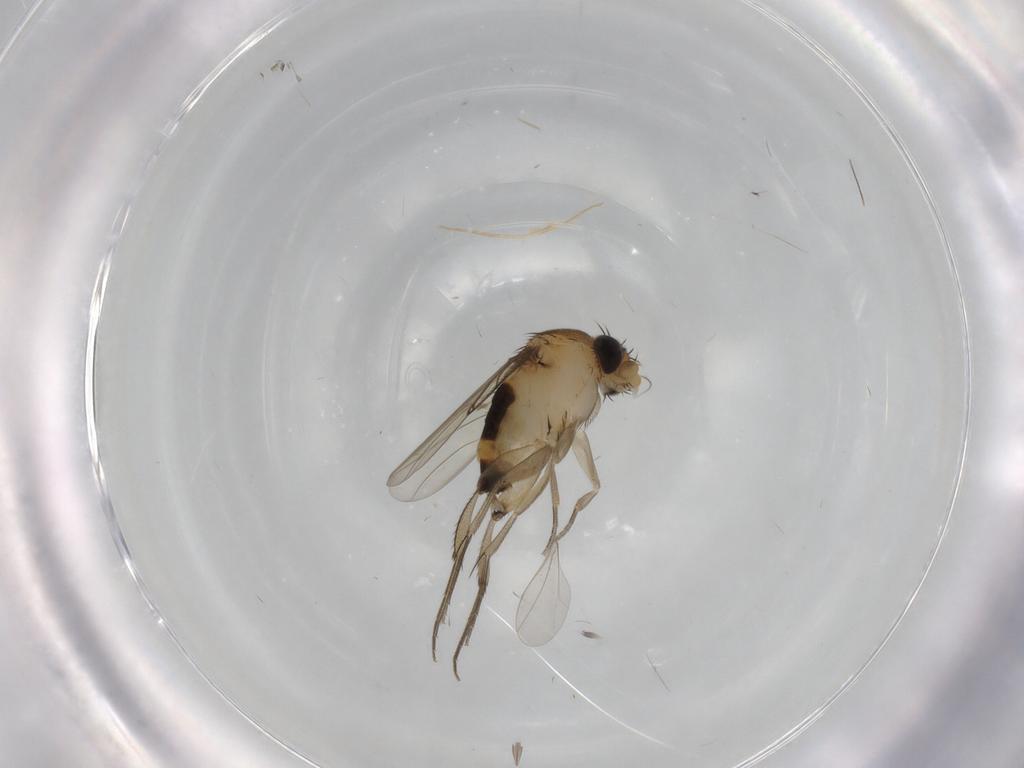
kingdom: Animalia
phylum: Arthropoda
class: Insecta
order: Diptera
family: Phoridae
